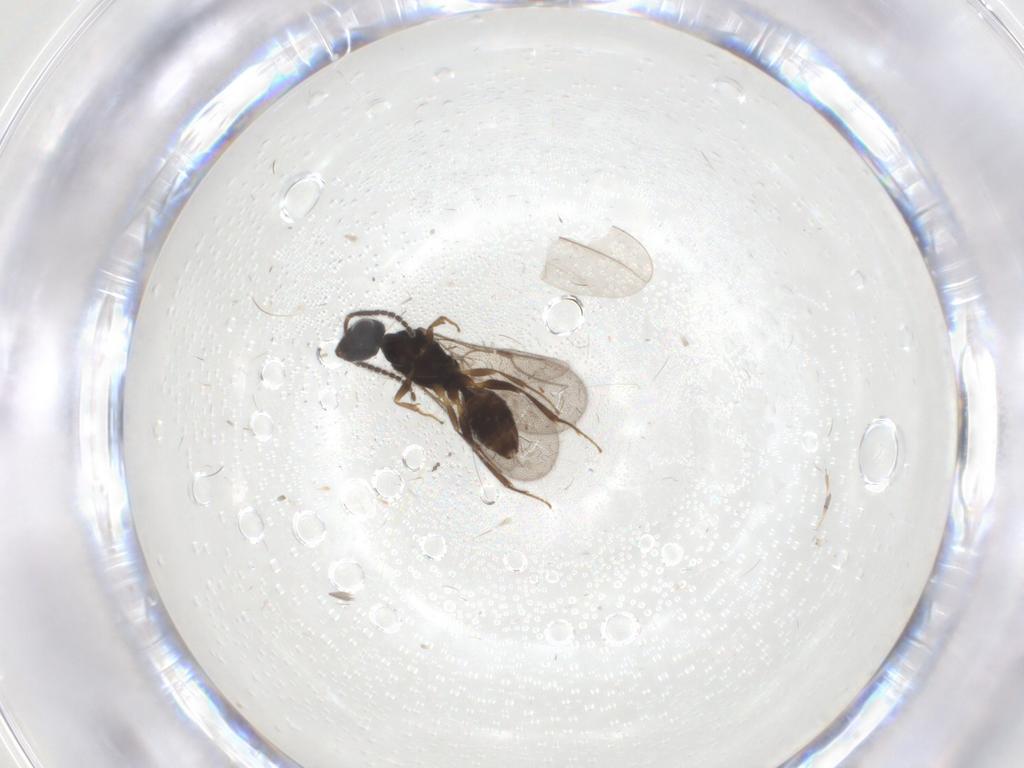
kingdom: Animalia
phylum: Arthropoda
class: Insecta
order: Hymenoptera
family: Bethylidae
